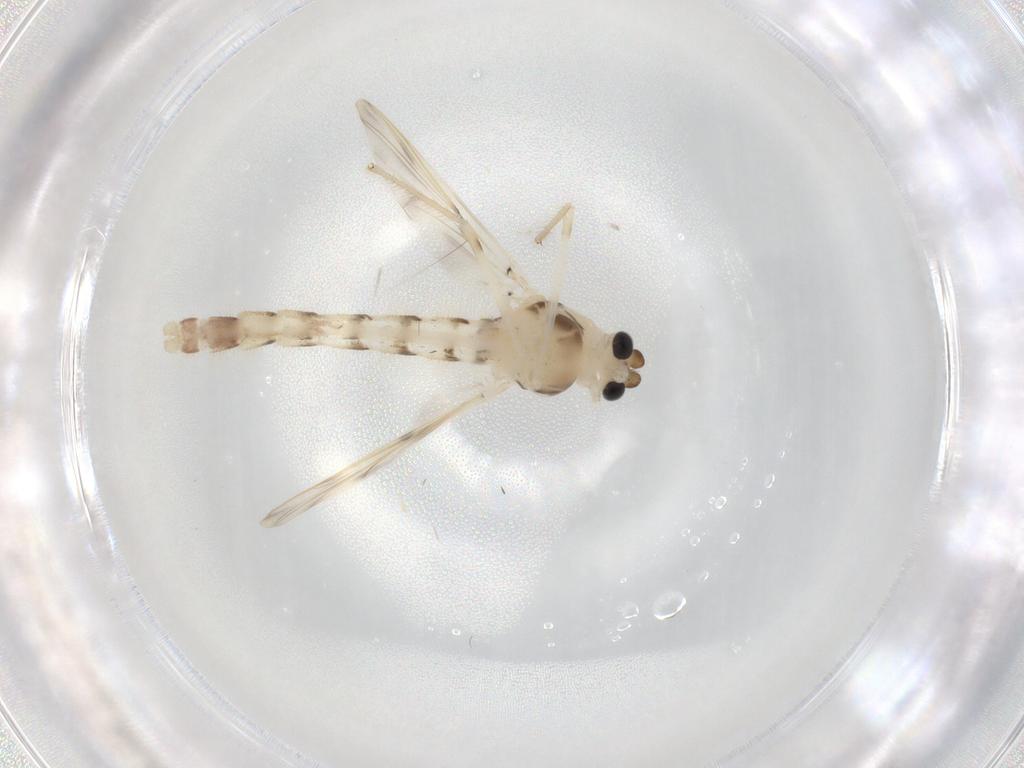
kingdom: Animalia
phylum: Arthropoda
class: Insecta
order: Diptera
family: Chironomidae
